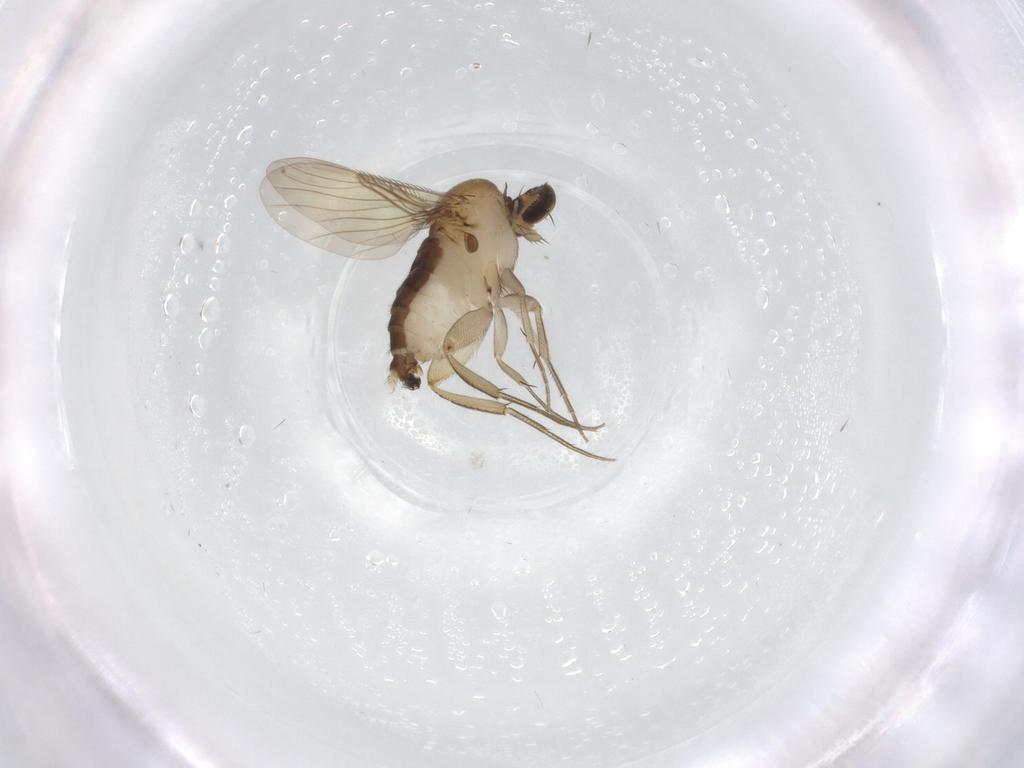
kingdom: Animalia
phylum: Arthropoda
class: Insecta
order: Diptera
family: Phoridae
